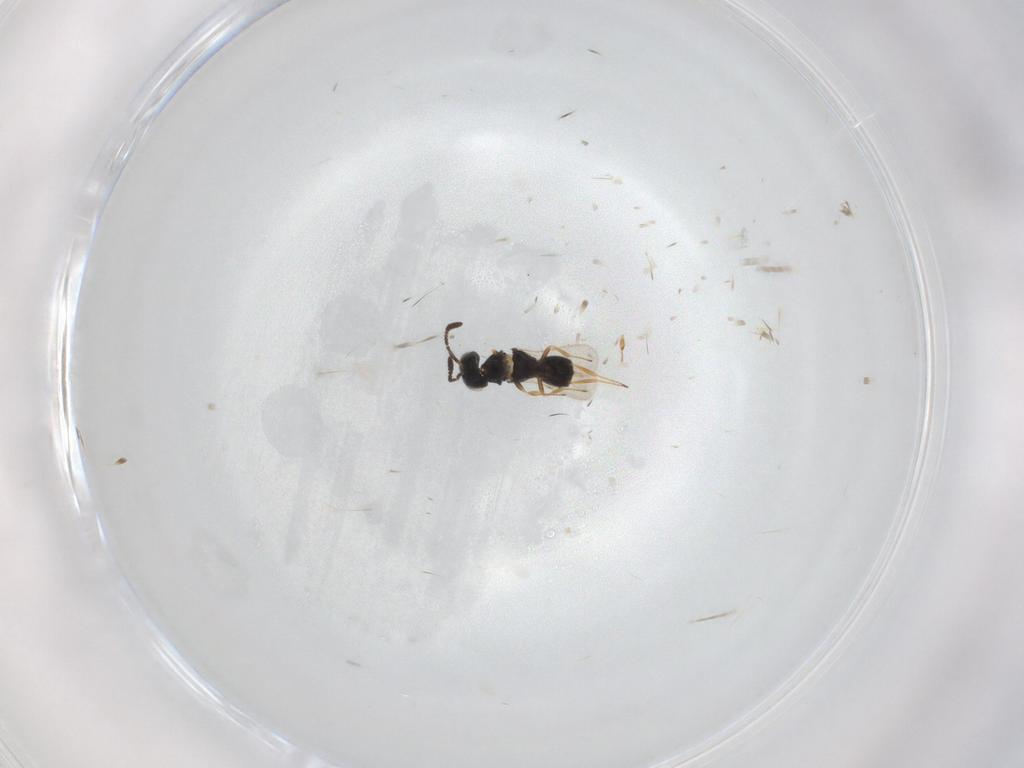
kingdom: Animalia
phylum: Arthropoda
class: Insecta
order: Hymenoptera
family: Scelionidae
